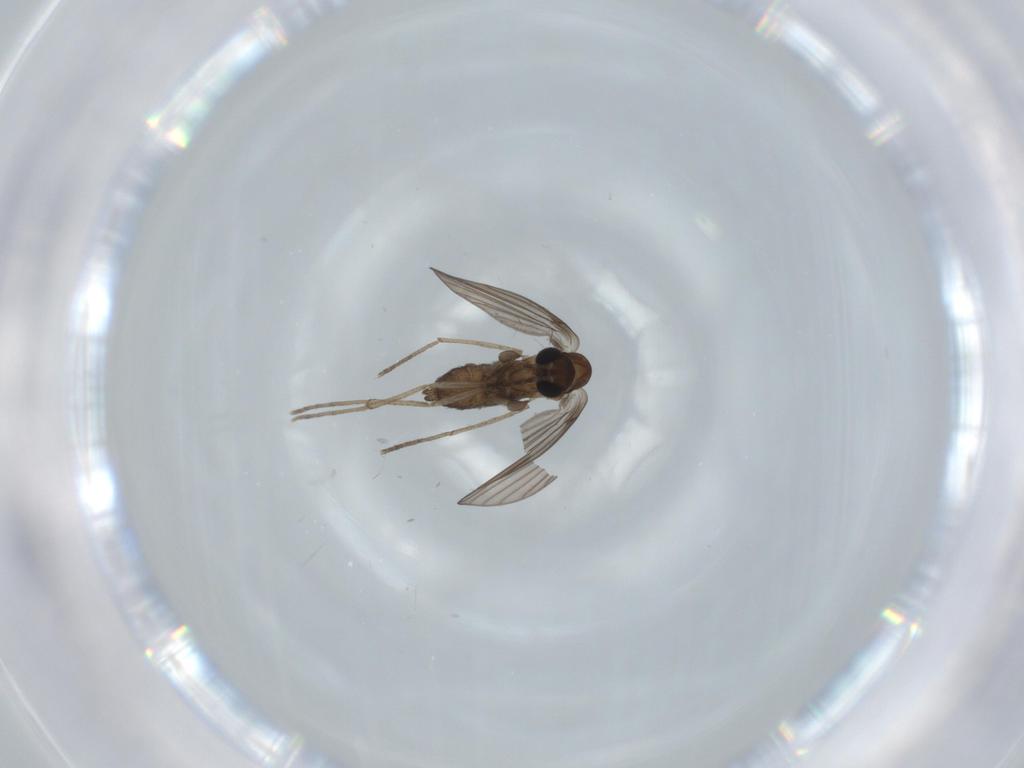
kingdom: Animalia
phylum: Arthropoda
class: Insecta
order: Diptera
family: Psychodidae
